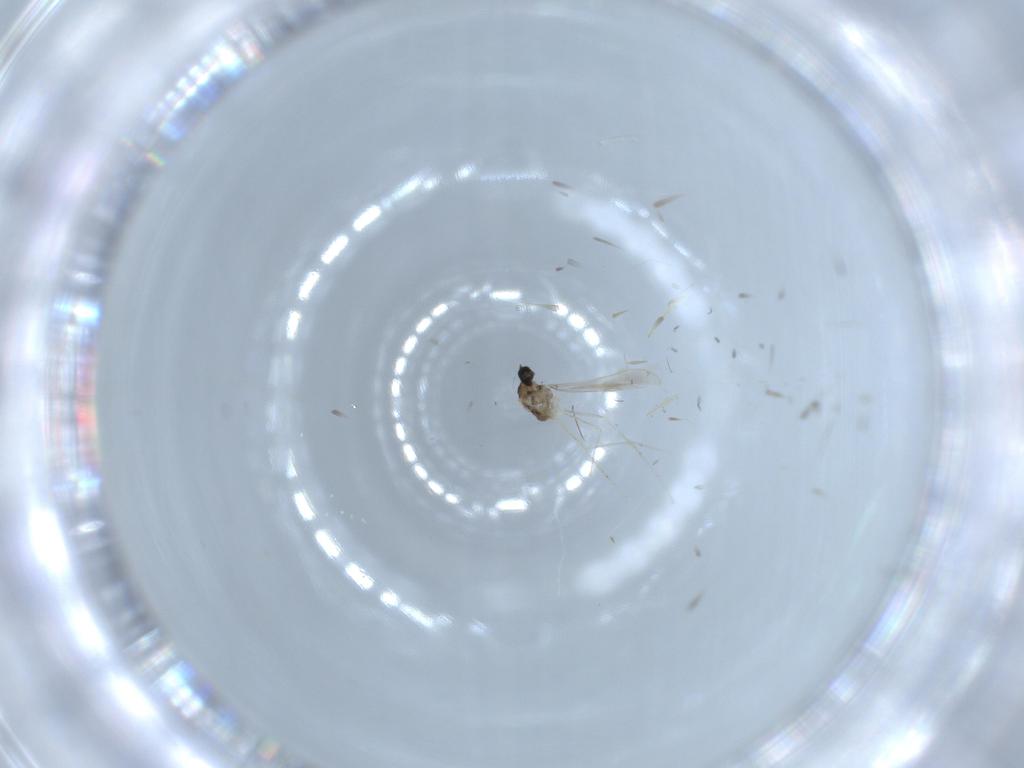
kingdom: Animalia
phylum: Arthropoda
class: Insecta
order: Diptera
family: Cecidomyiidae
